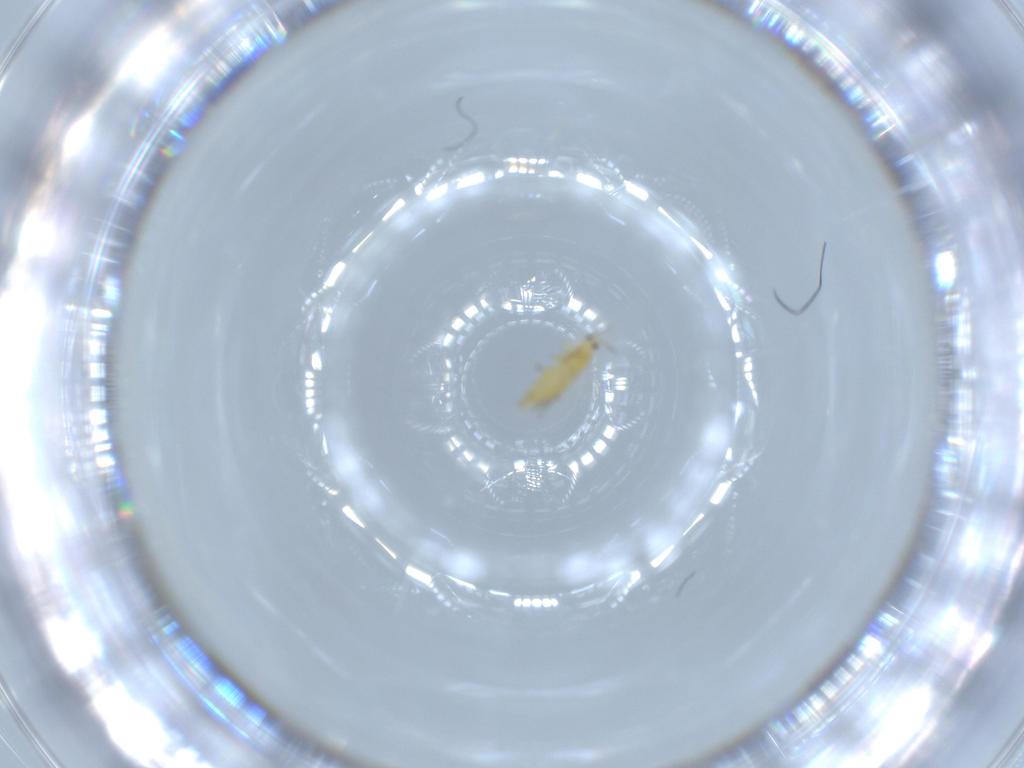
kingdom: Animalia
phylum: Arthropoda
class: Insecta
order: Thysanoptera
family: Thripidae
